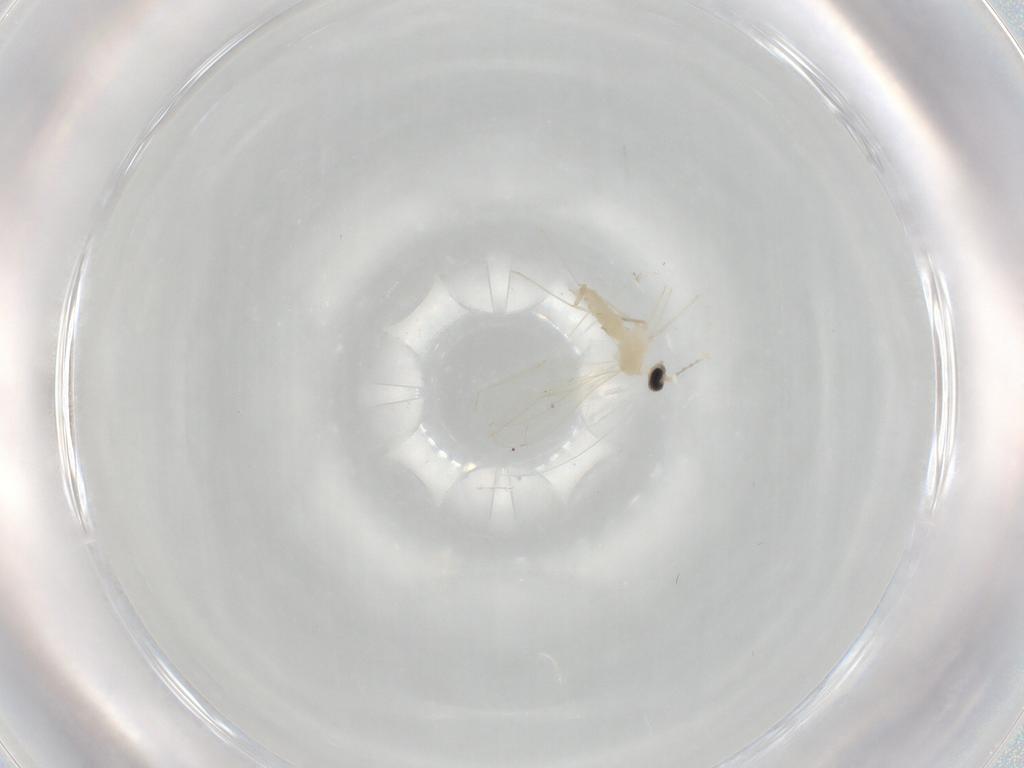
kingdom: Animalia
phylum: Arthropoda
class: Insecta
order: Diptera
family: Cecidomyiidae
